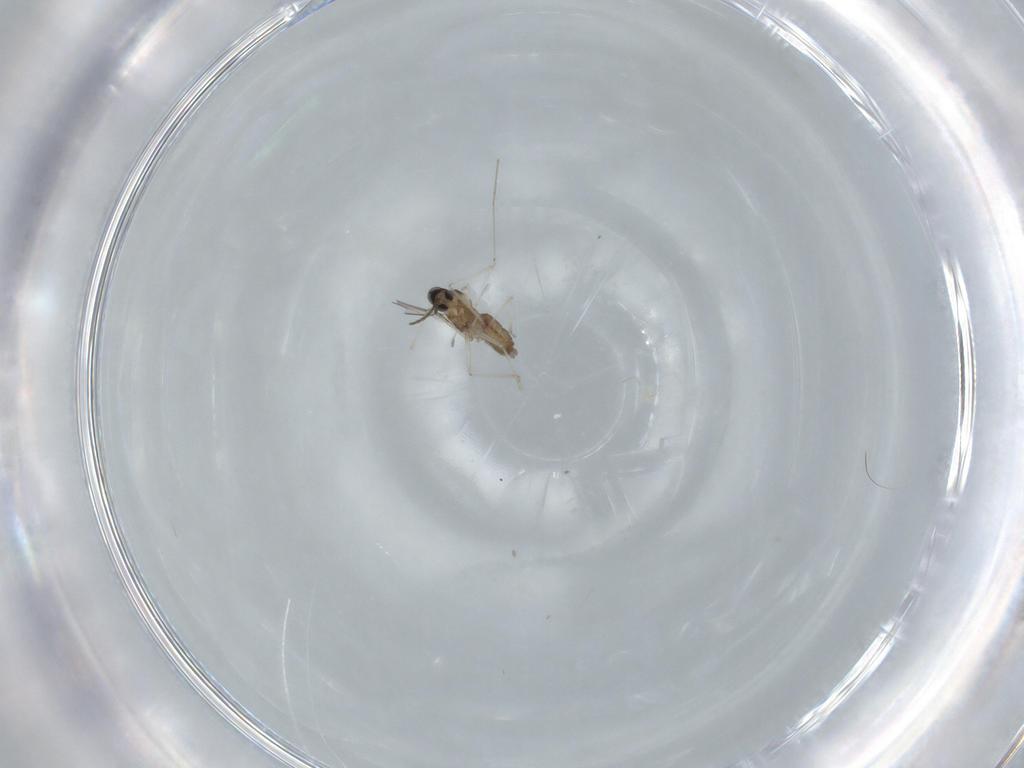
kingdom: Animalia
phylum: Arthropoda
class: Insecta
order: Diptera
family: Cecidomyiidae
